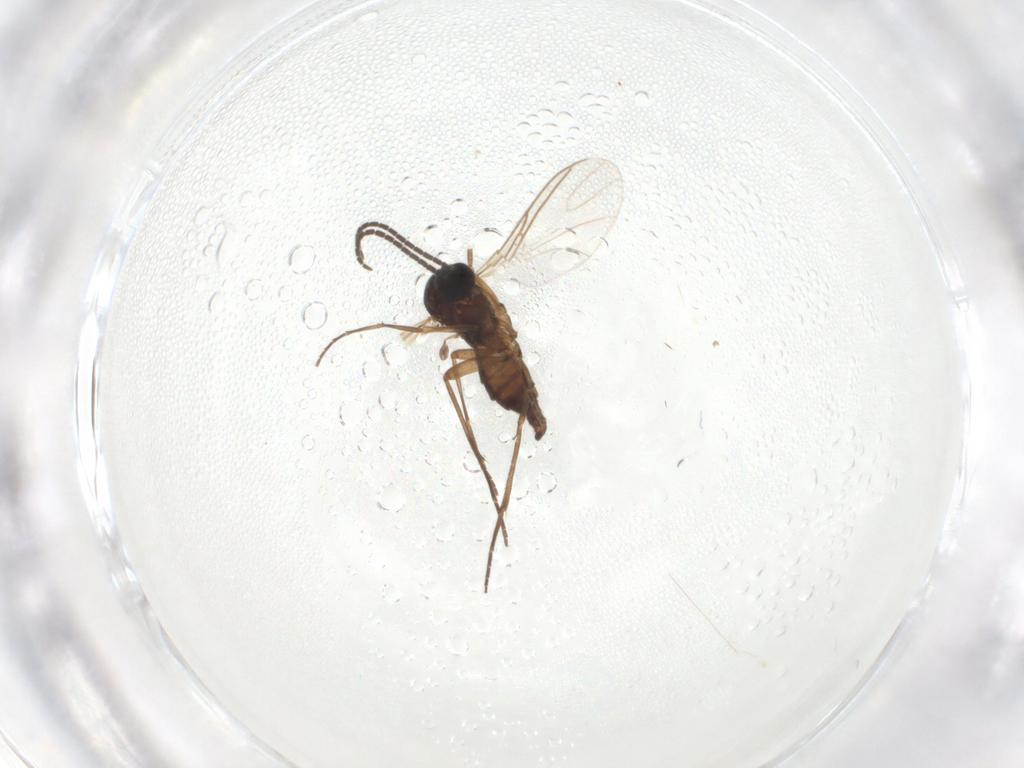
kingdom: Animalia
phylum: Arthropoda
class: Insecta
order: Diptera
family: Sciaridae
